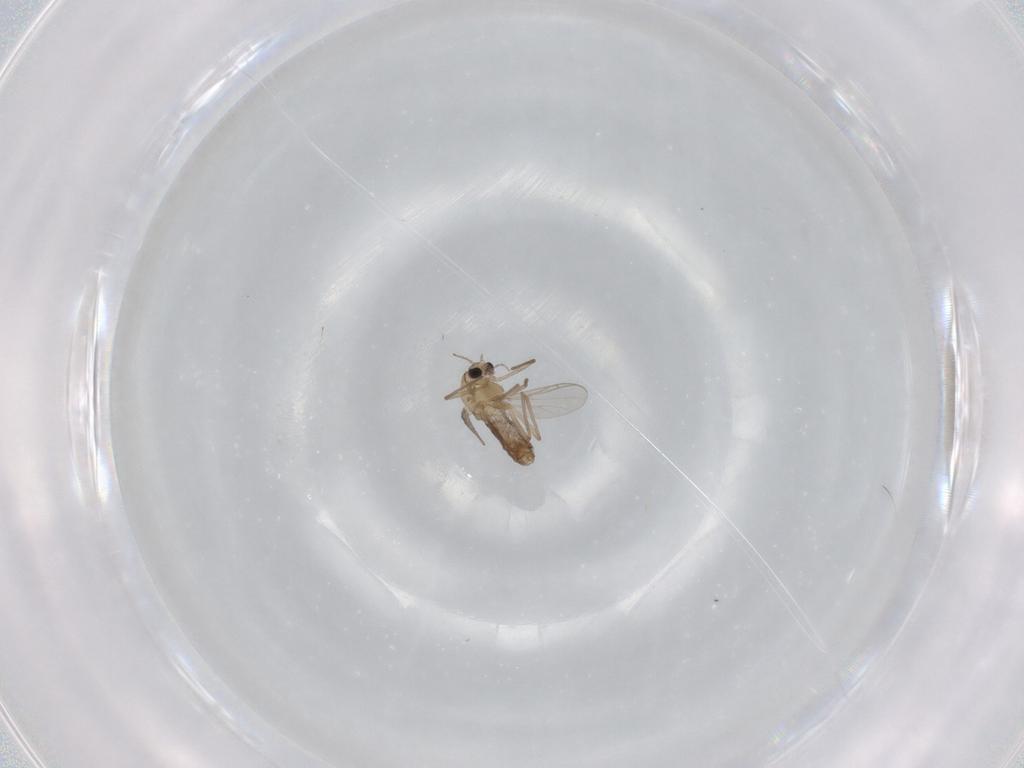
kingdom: Animalia
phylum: Arthropoda
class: Insecta
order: Diptera
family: Chironomidae
